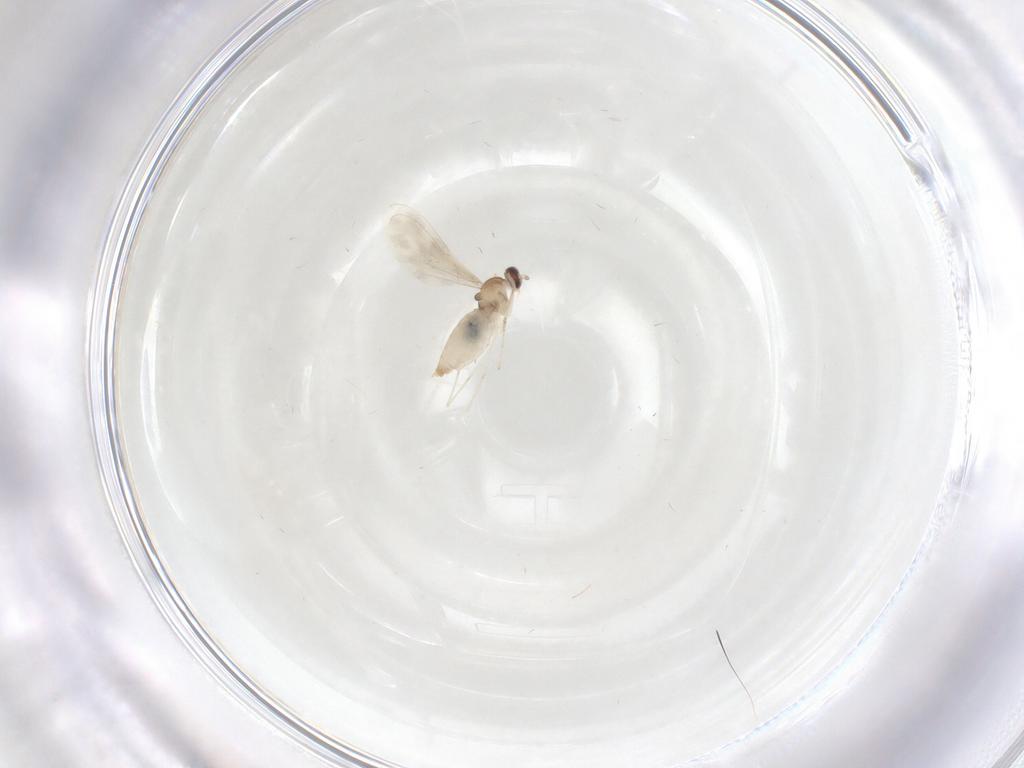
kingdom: Animalia
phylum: Arthropoda
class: Insecta
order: Diptera
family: Cecidomyiidae
